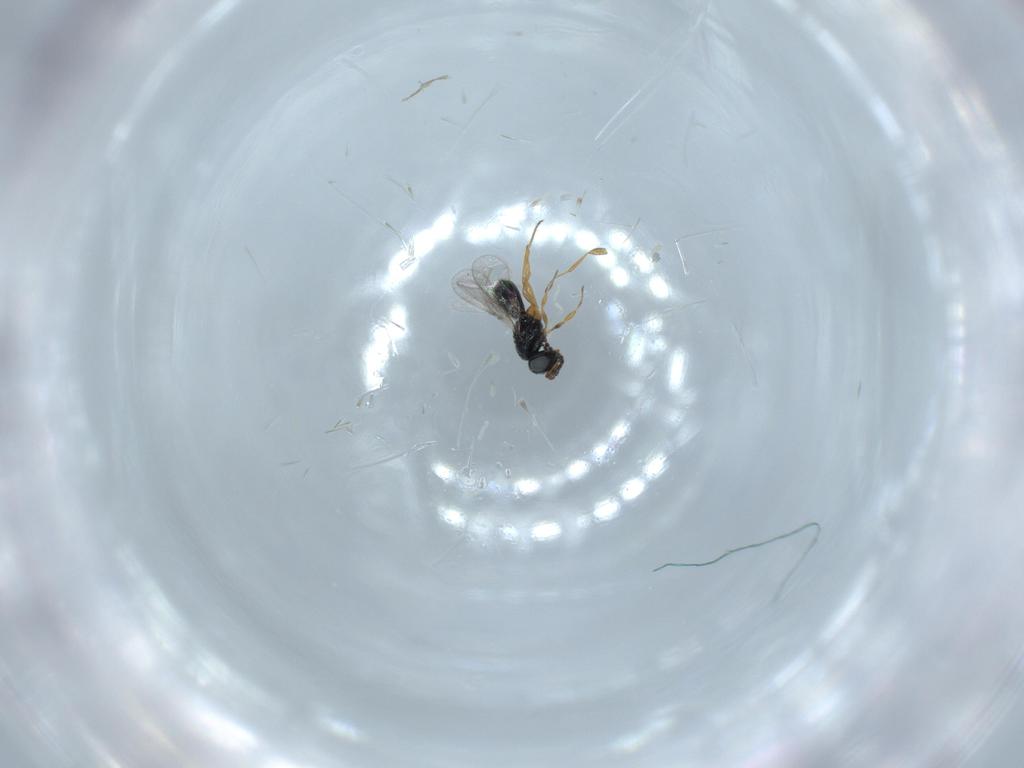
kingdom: Animalia
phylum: Arthropoda
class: Insecta
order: Hymenoptera
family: Scelionidae
